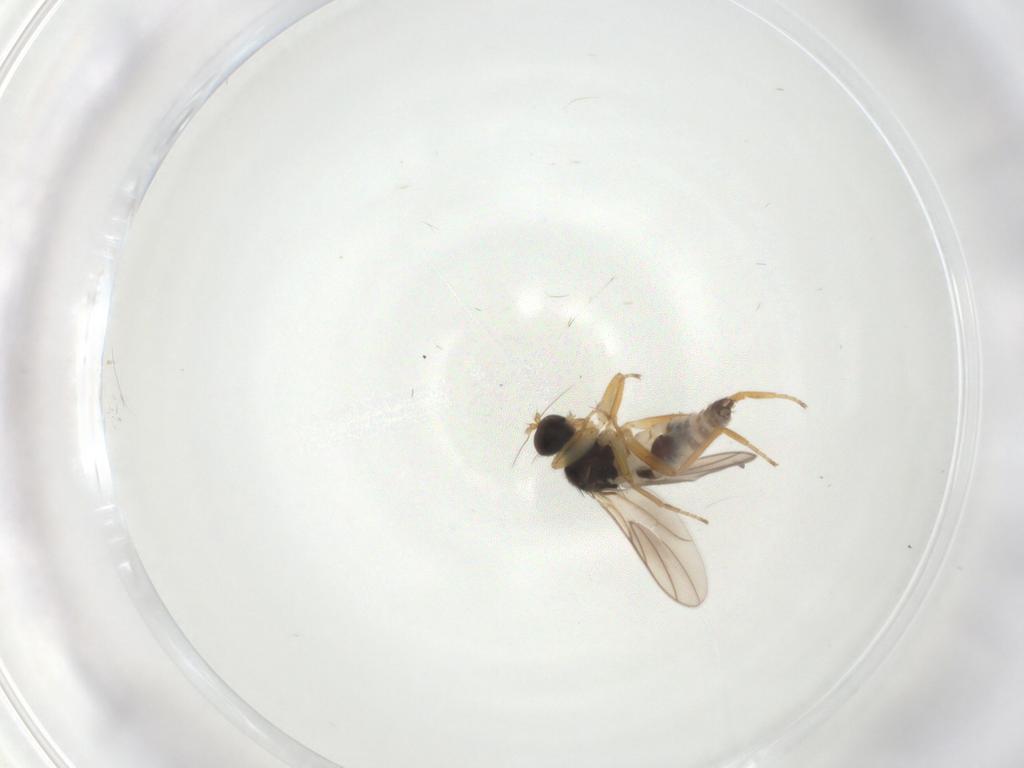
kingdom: Animalia
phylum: Arthropoda
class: Insecta
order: Diptera
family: Hybotidae
